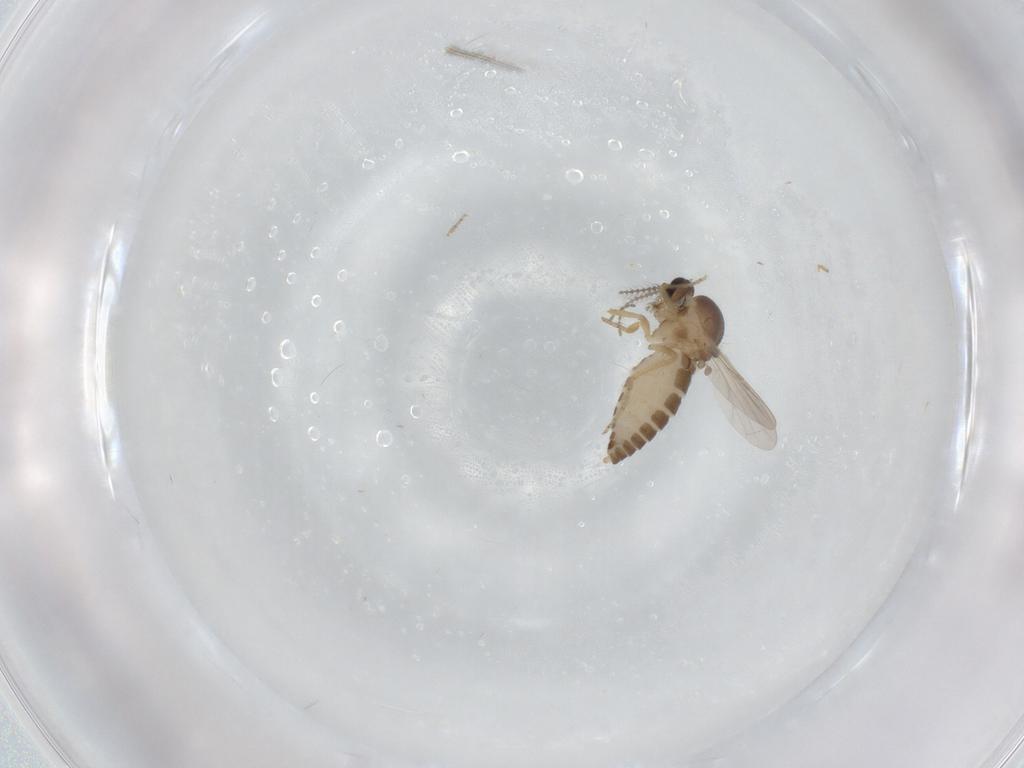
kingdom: Animalia
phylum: Arthropoda
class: Insecta
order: Diptera
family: Ceratopogonidae
